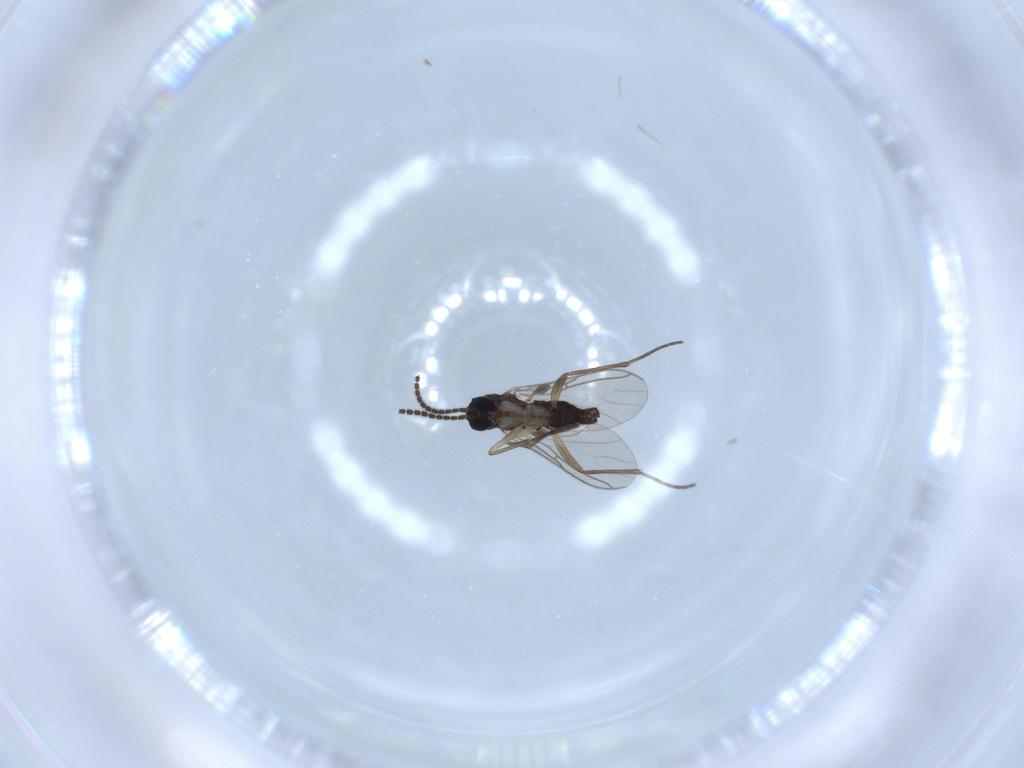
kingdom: Animalia
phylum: Arthropoda
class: Insecta
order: Diptera
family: Sciaridae
